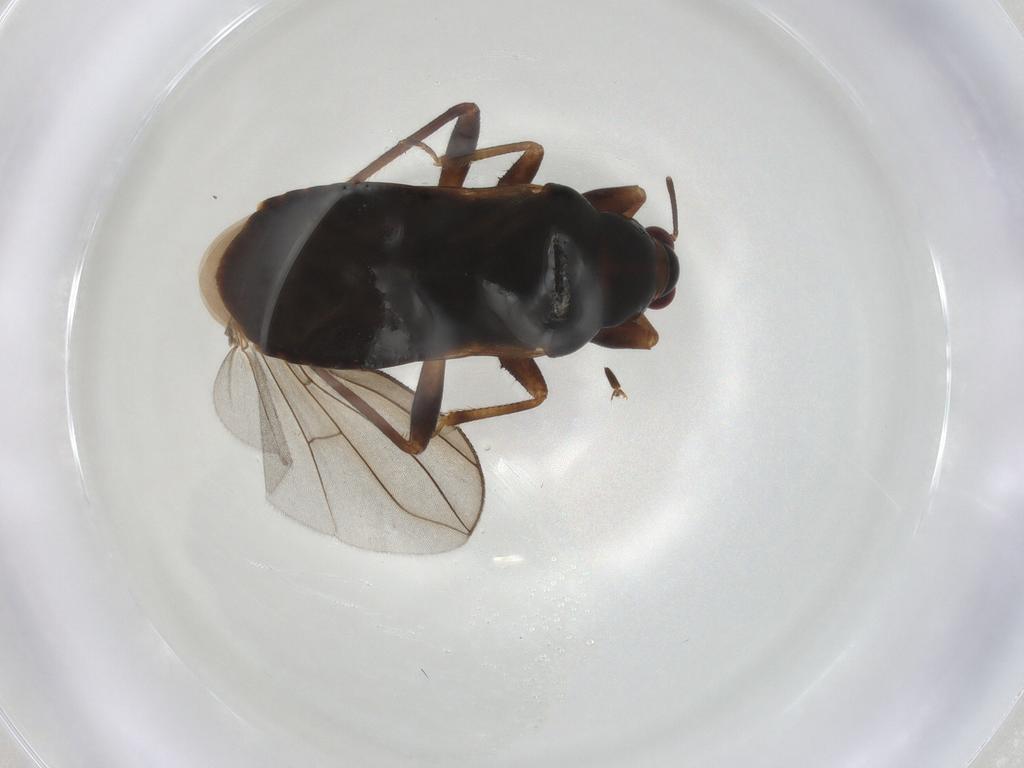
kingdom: Animalia
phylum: Arthropoda
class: Insecta
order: Hemiptera
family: Nabidae
